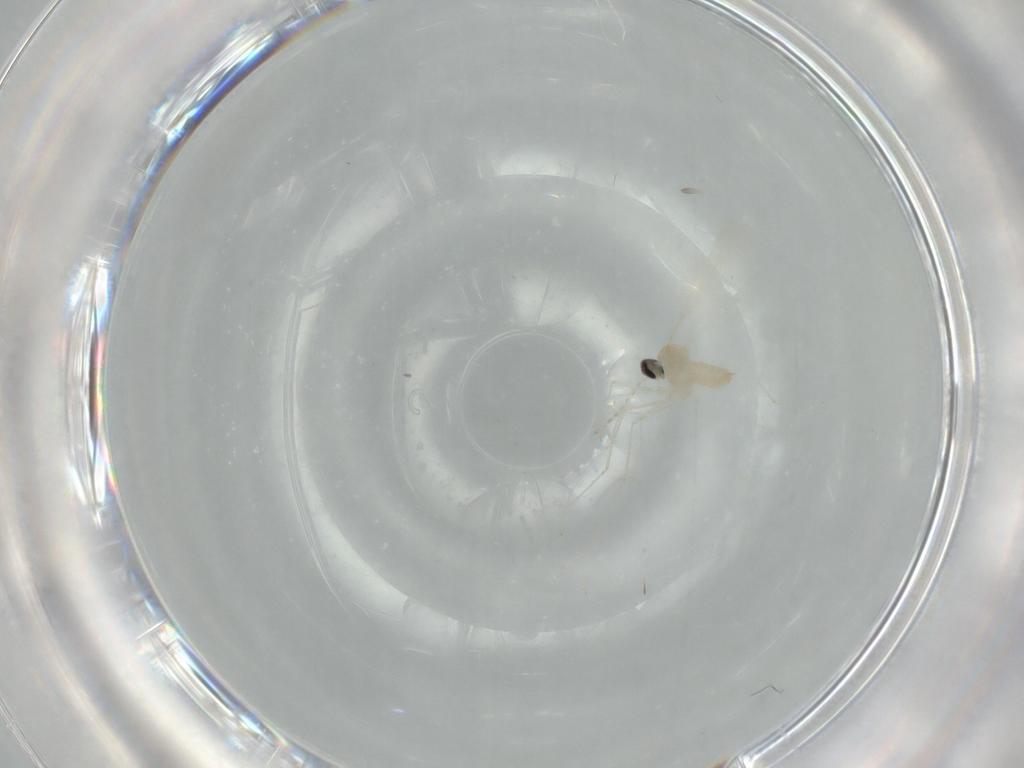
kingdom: Animalia
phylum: Arthropoda
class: Insecta
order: Diptera
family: Cecidomyiidae
